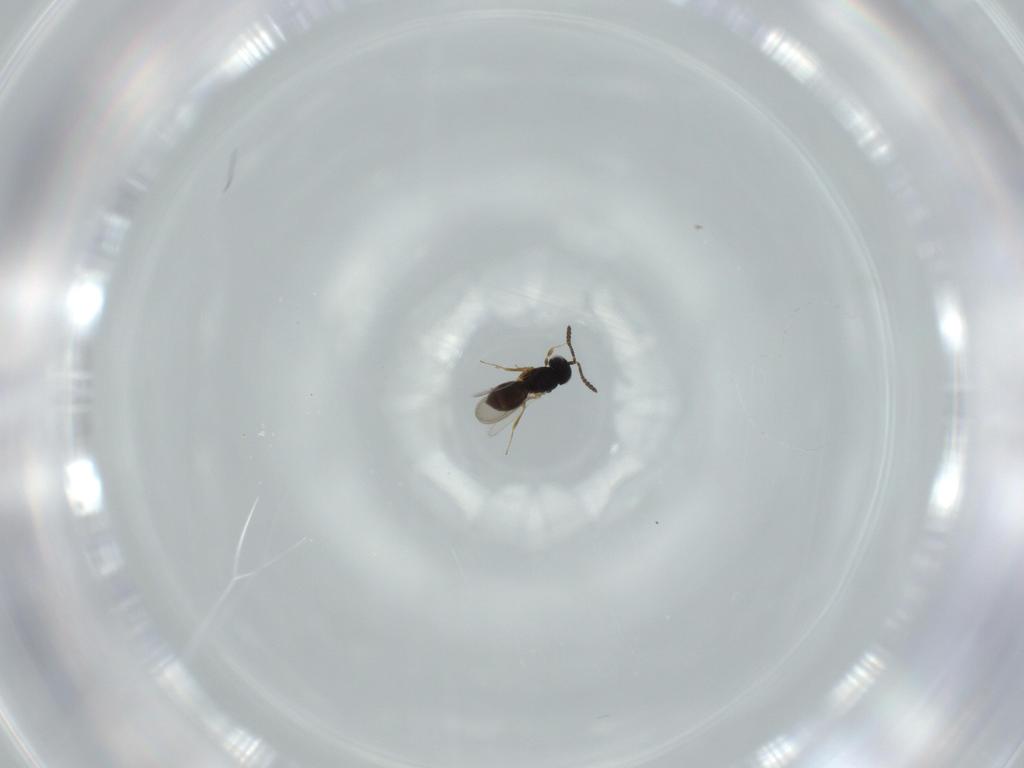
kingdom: Animalia
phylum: Arthropoda
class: Insecta
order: Hymenoptera
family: Scelionidae
